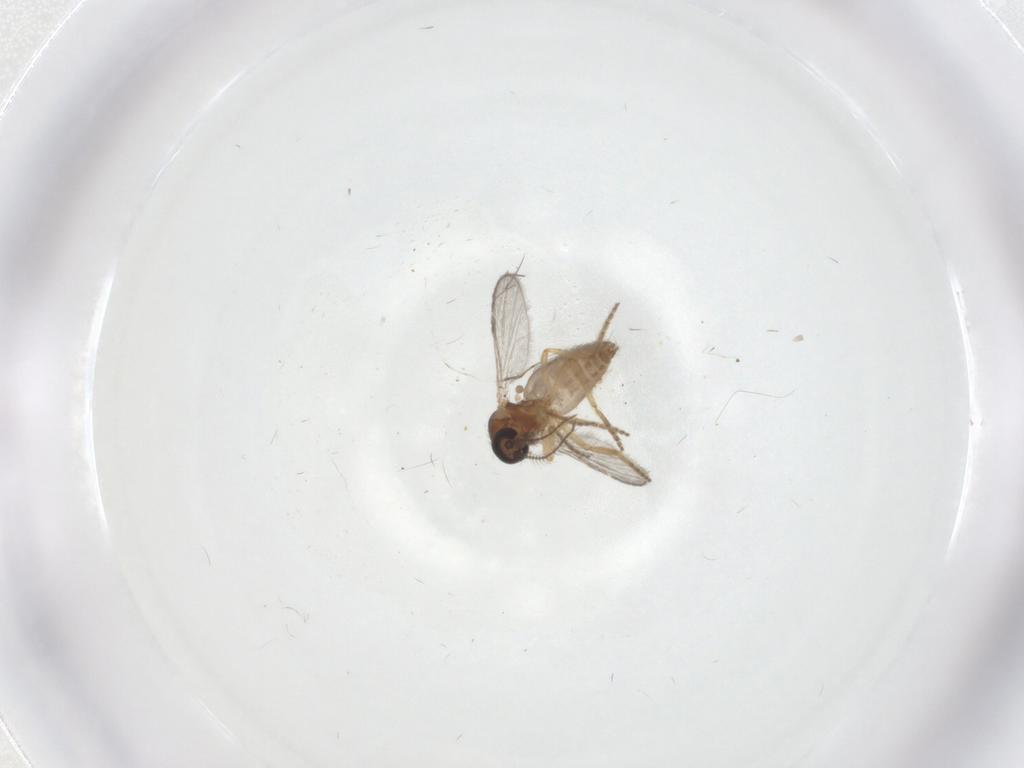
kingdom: Animalia
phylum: Arthropoda
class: Insecta
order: Diptera
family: Ceratopogonidae
